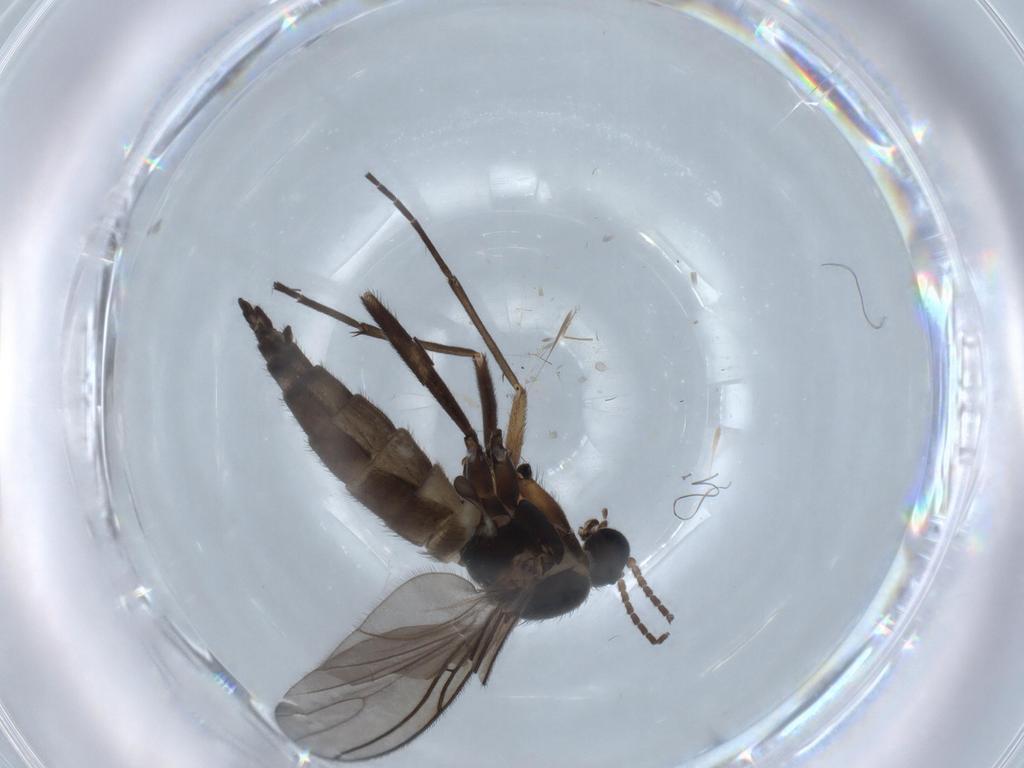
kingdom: Animalia
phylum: Arthropoda
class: Insecta
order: Diptera
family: Sciaridae
